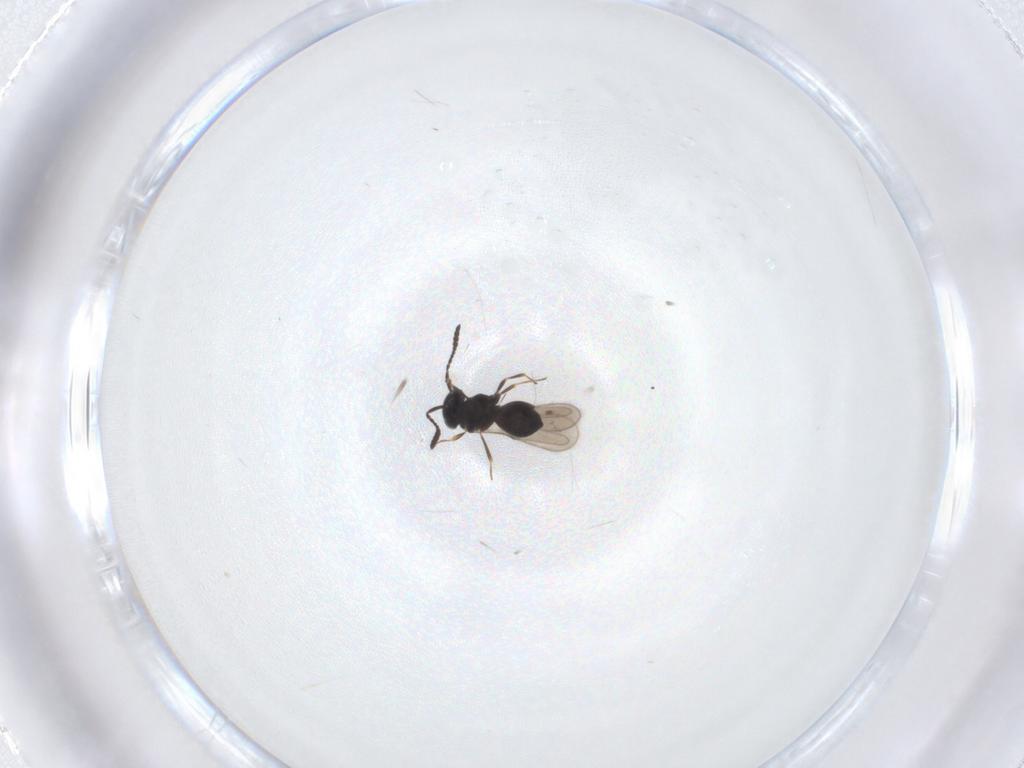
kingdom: Animalia
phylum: Arthropoda
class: Insecta
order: Hymenoptera
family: Scelionidae
